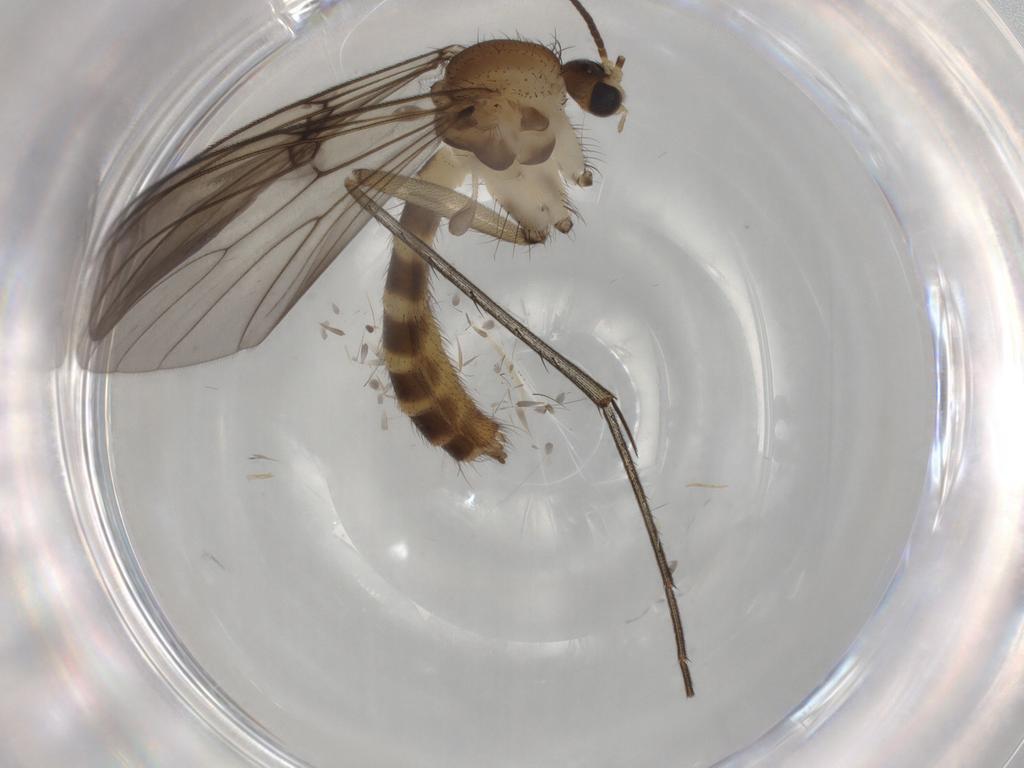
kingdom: Animalia
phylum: Arthropoda
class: Insecta
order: Diptera
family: Mycetophilidae
